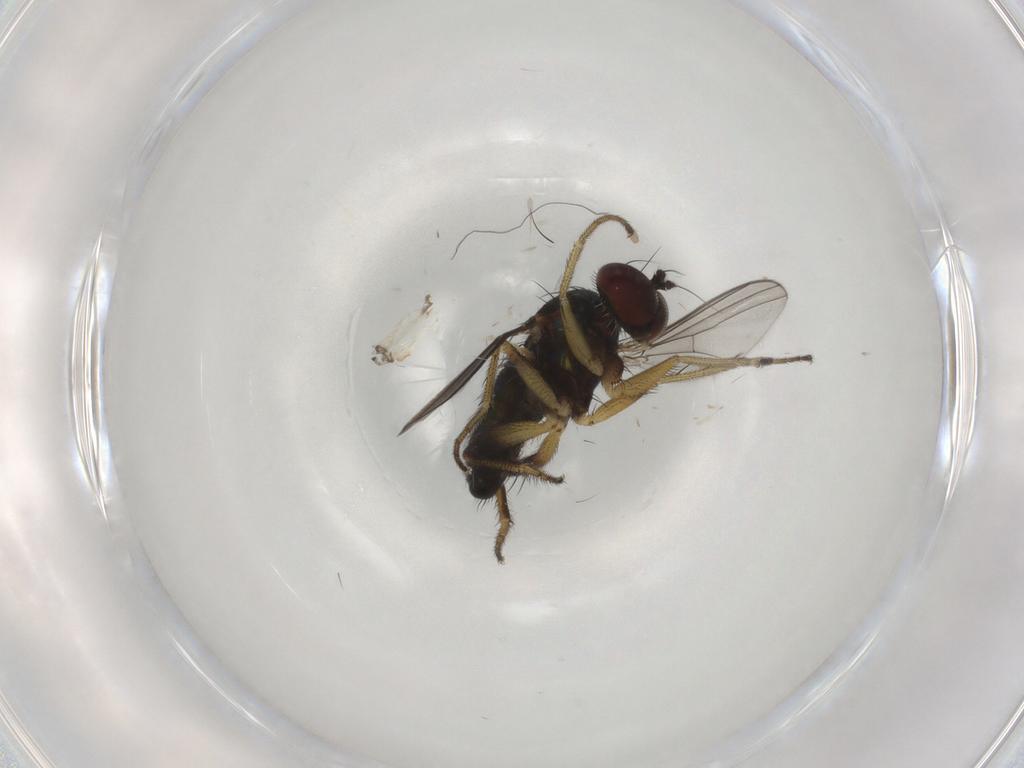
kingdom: Animalia
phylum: Arthropoda
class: Insecta
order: Diptera
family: Dolichopodidae
